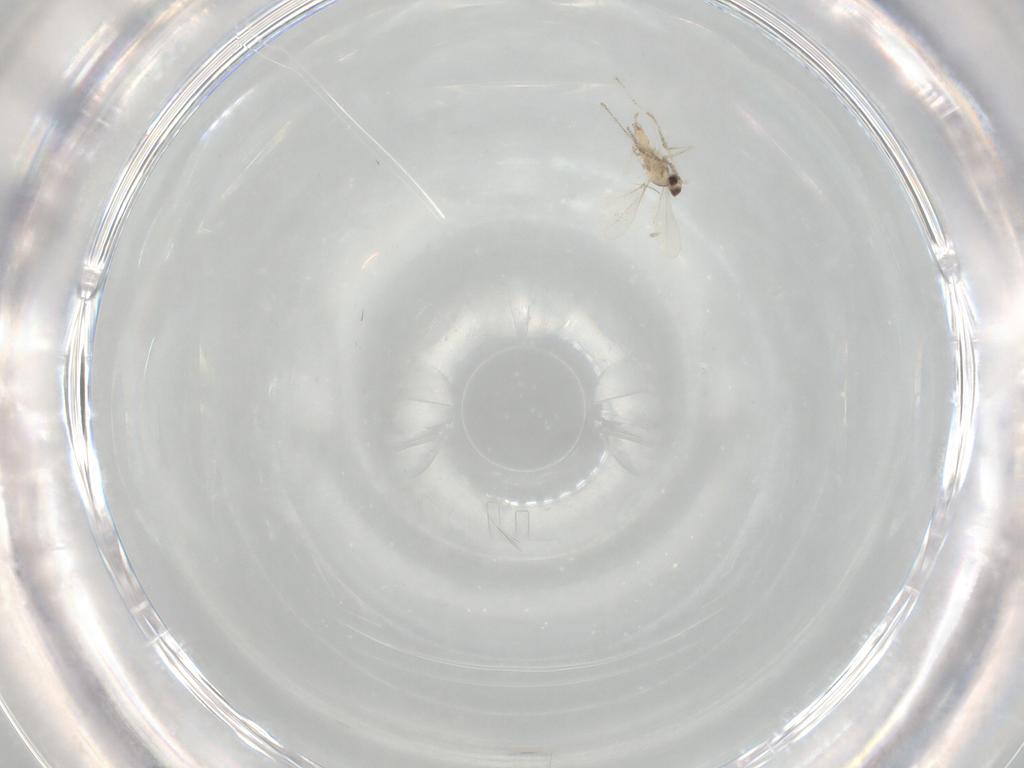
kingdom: Animalia
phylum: Arthropoda
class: Insecta
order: Diptera
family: Cecidomyiidae
